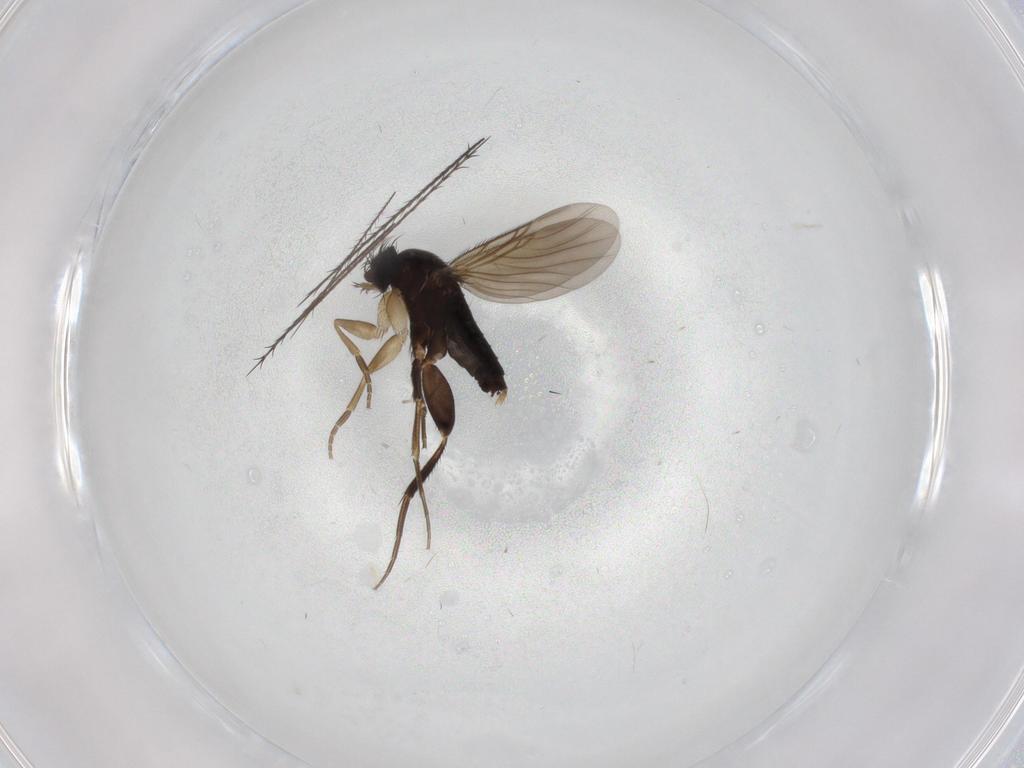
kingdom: Animalia
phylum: Arthropoda
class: Insecta
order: Diptera
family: Phoridae
